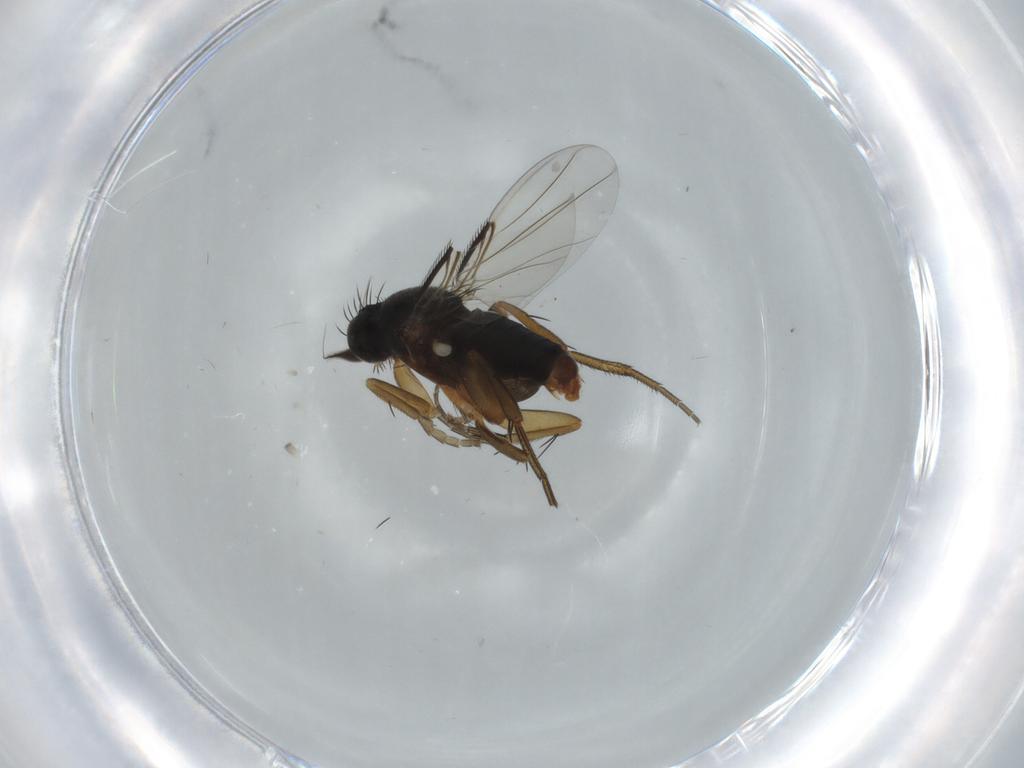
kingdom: Animalia
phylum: Arthropoda
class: Insecta
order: Diptera
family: Phoridae
